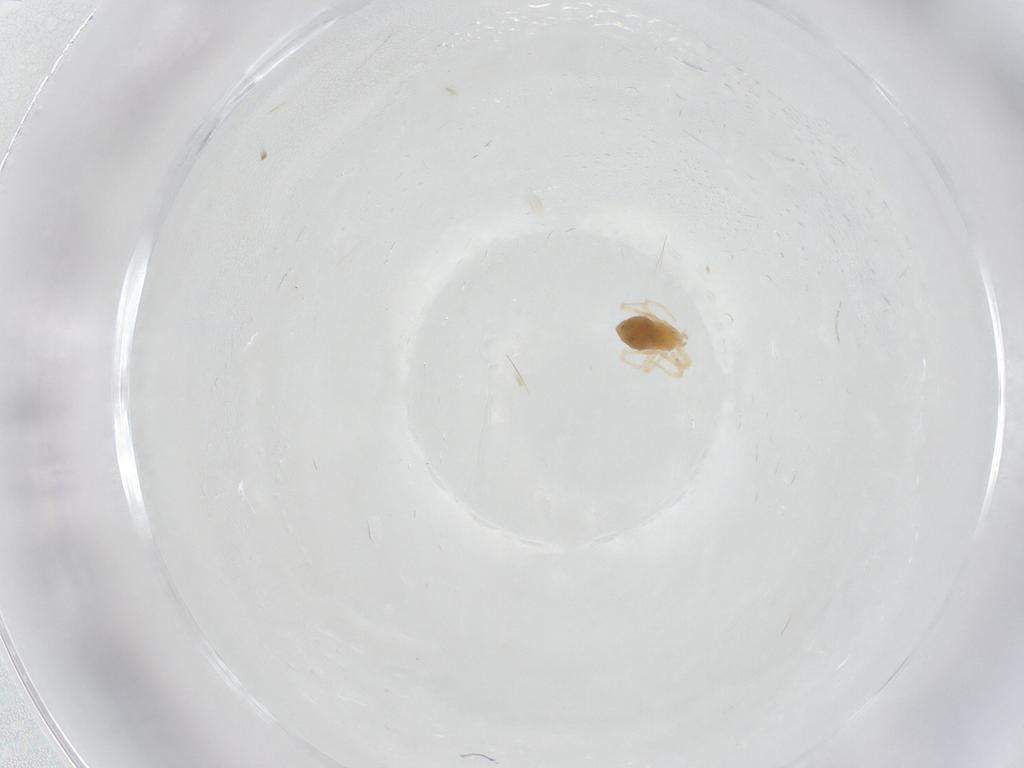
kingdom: Animalia
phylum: Arthropoda
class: Arachnida
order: Trombidiformes
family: Anystidae
